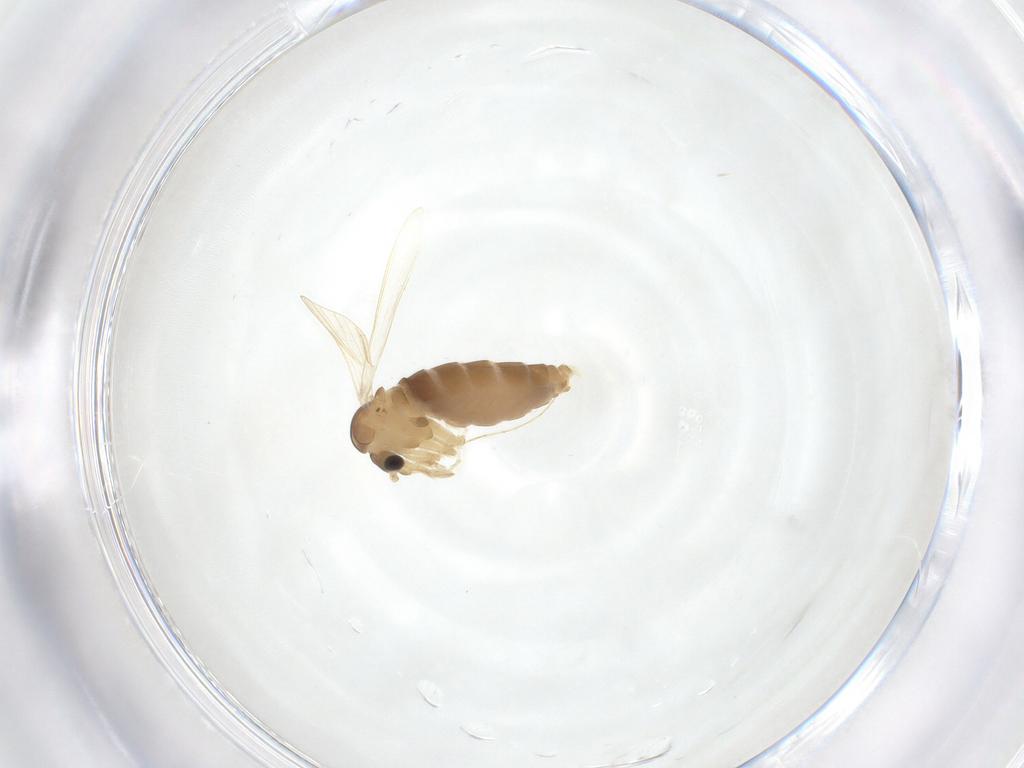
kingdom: Animalia
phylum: Arthropoda
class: Insecta
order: Diptera
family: Psychodidae
